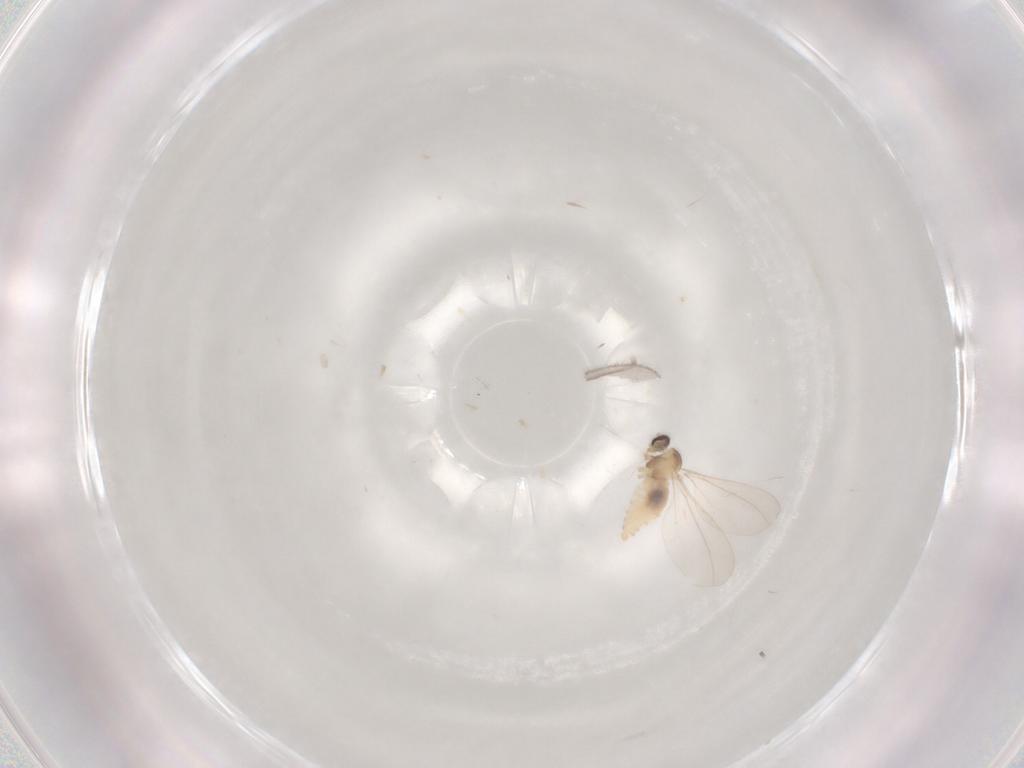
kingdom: Animalia
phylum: Arthropoda
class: Insecta
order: Diptera
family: Cecidomyiidae
